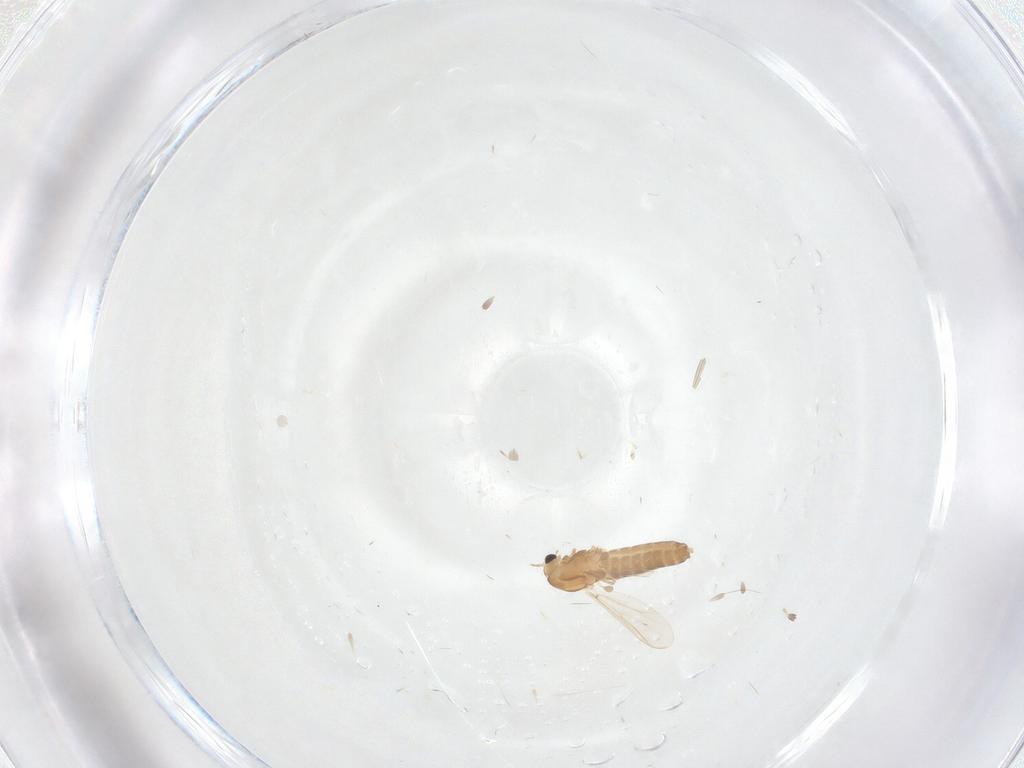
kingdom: Animalia
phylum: Arthropoda
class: Insecta
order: Diptera
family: Chironomidae
